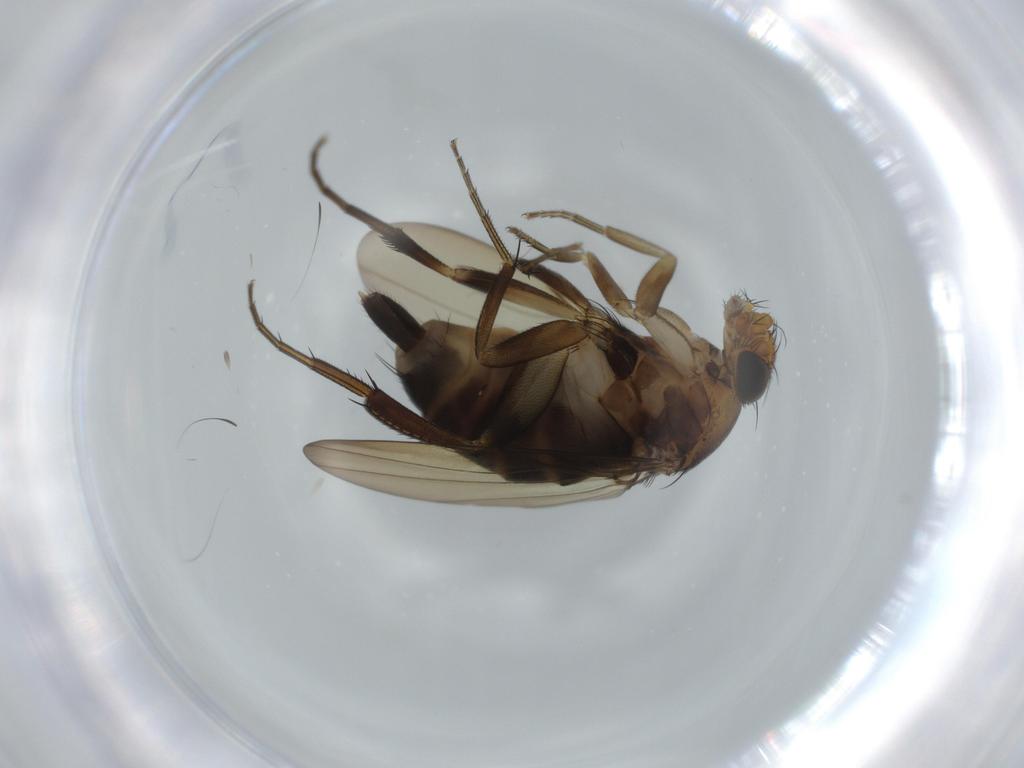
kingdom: Animalia
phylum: Arthropoda
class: Insecta
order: Diptera
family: Phoridae
